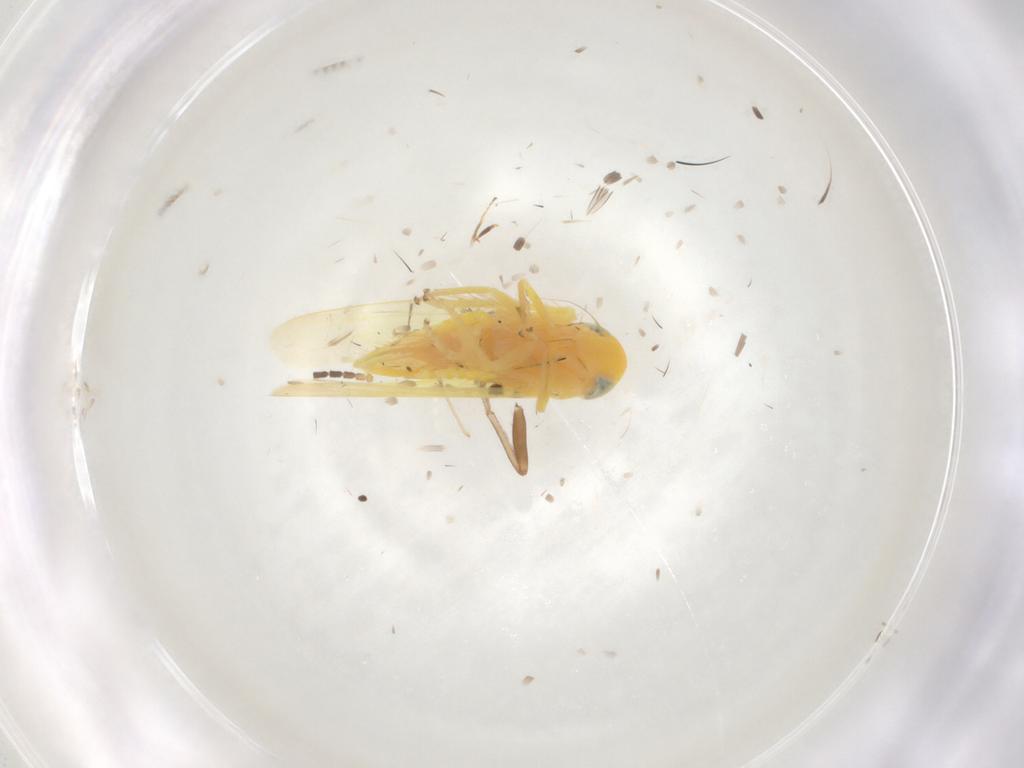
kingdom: Animalia
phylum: Arthropoda
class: Insecta
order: Hemiptera
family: Cicadellidae
